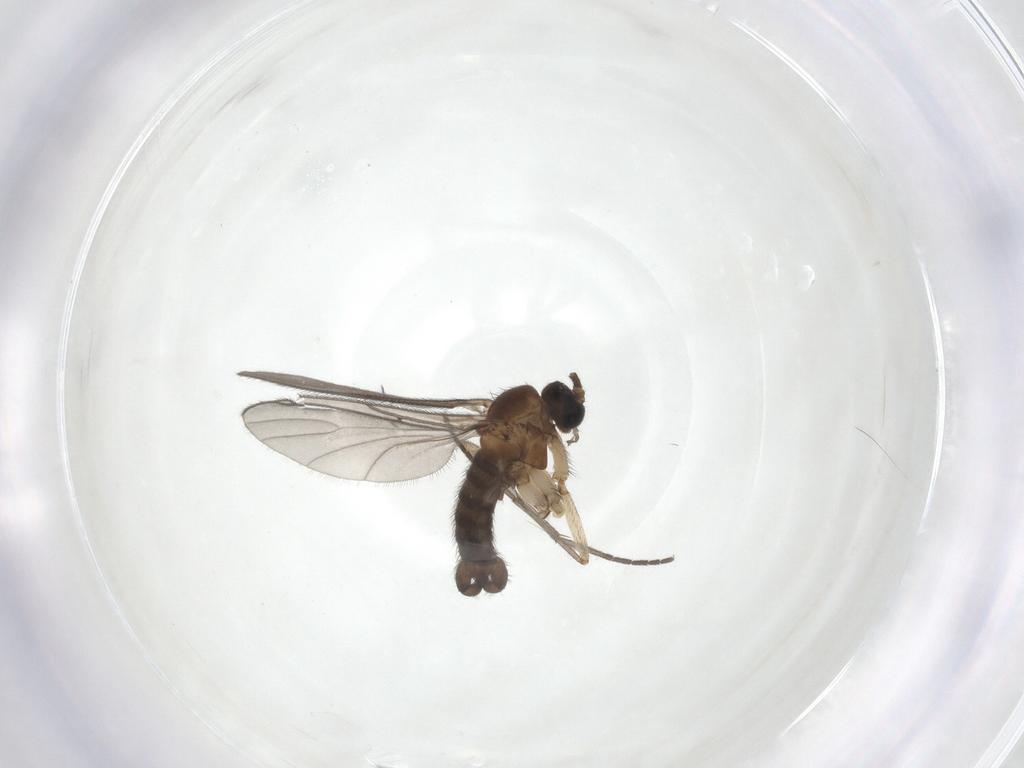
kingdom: Animalia
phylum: Arthropoda
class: Insecta
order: Diptera
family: Sciaridae
